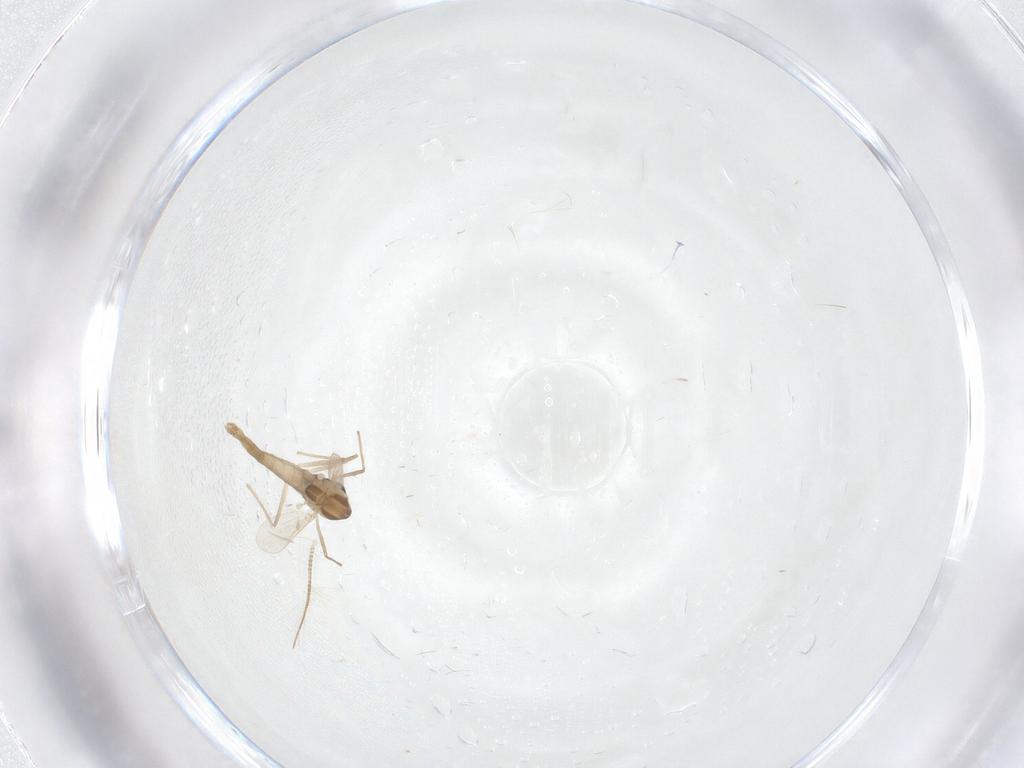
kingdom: Animalia
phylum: Arthropoda
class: Insecta
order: Diptera
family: Chironomidae
